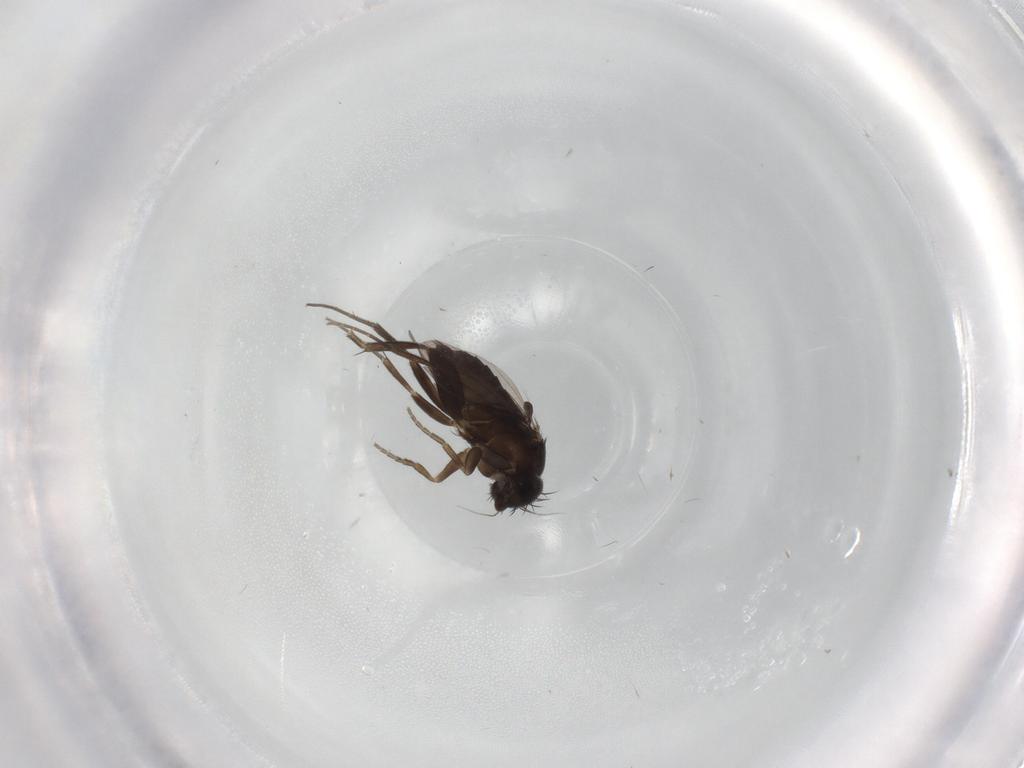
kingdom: Animalia
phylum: Arthropoda
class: Insecta
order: Diptera
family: Phoridae
